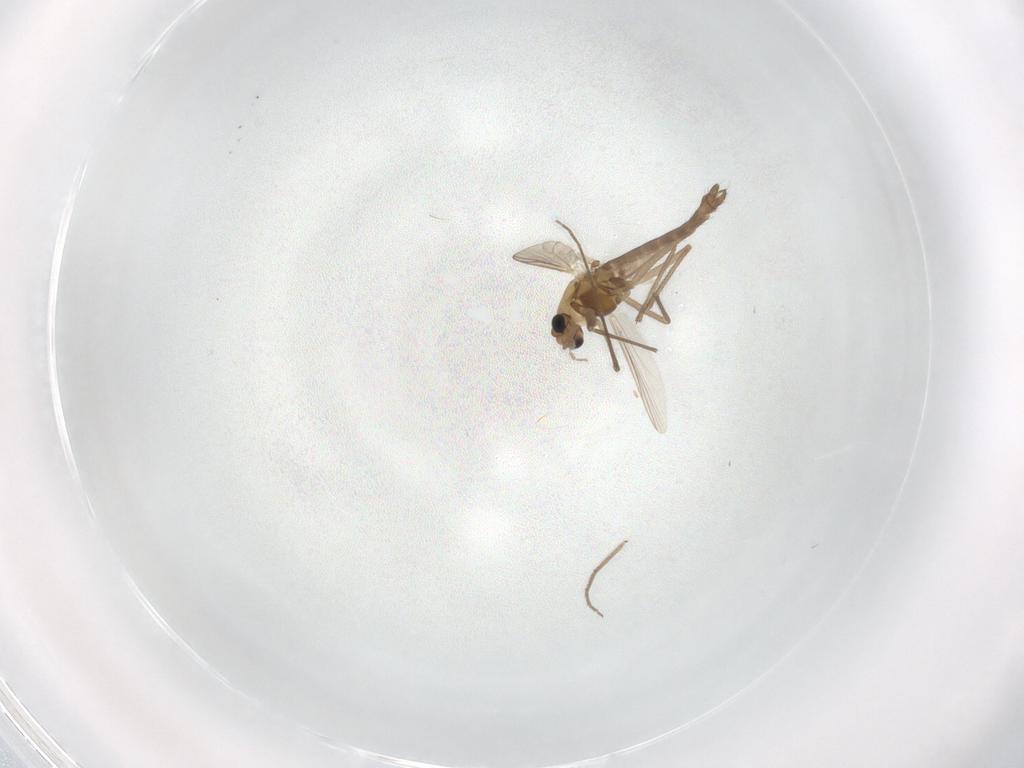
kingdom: Animalia
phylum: Arthropoda
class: Insecta
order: Diptera
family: Chironomidae
